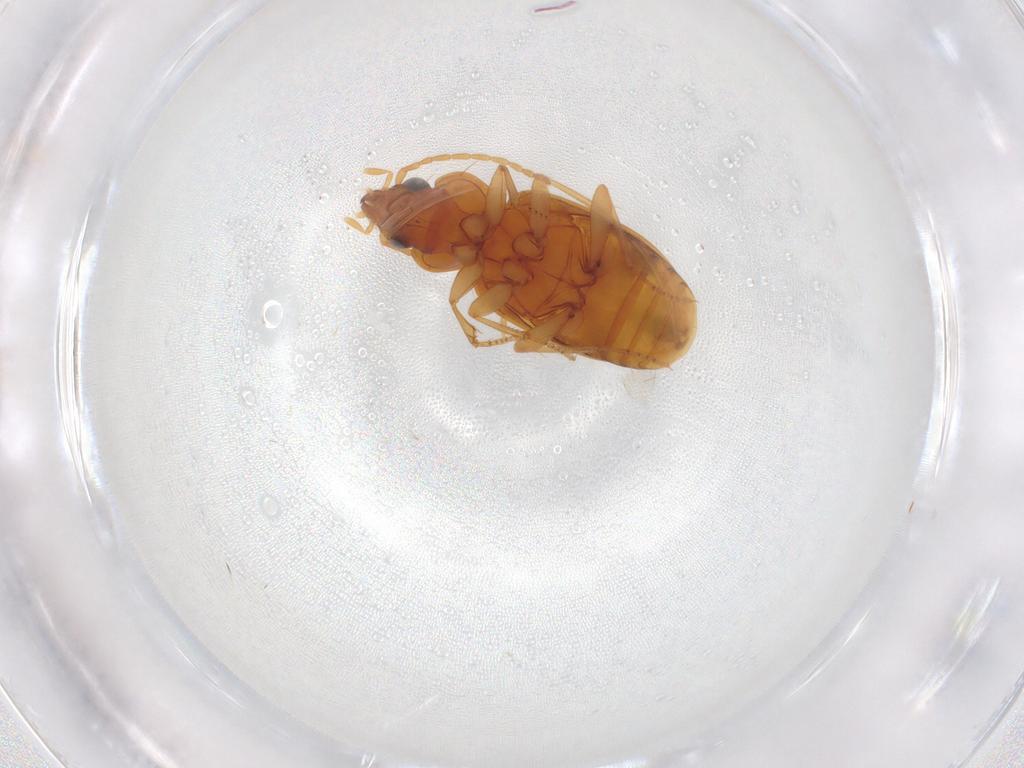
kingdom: Animalia
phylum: Arthropoda
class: Insecta
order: Coleoptera
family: Carabidae
